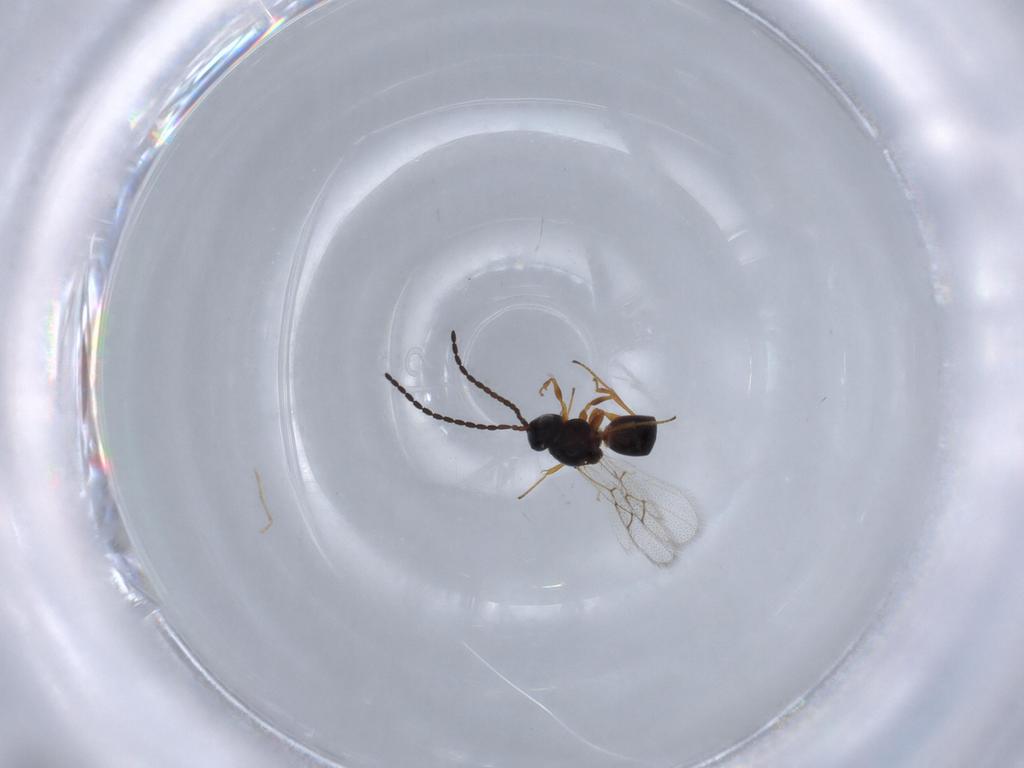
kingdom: Animalia
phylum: Arthropoda
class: Insecta
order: Hymenoptera
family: Figitidae
